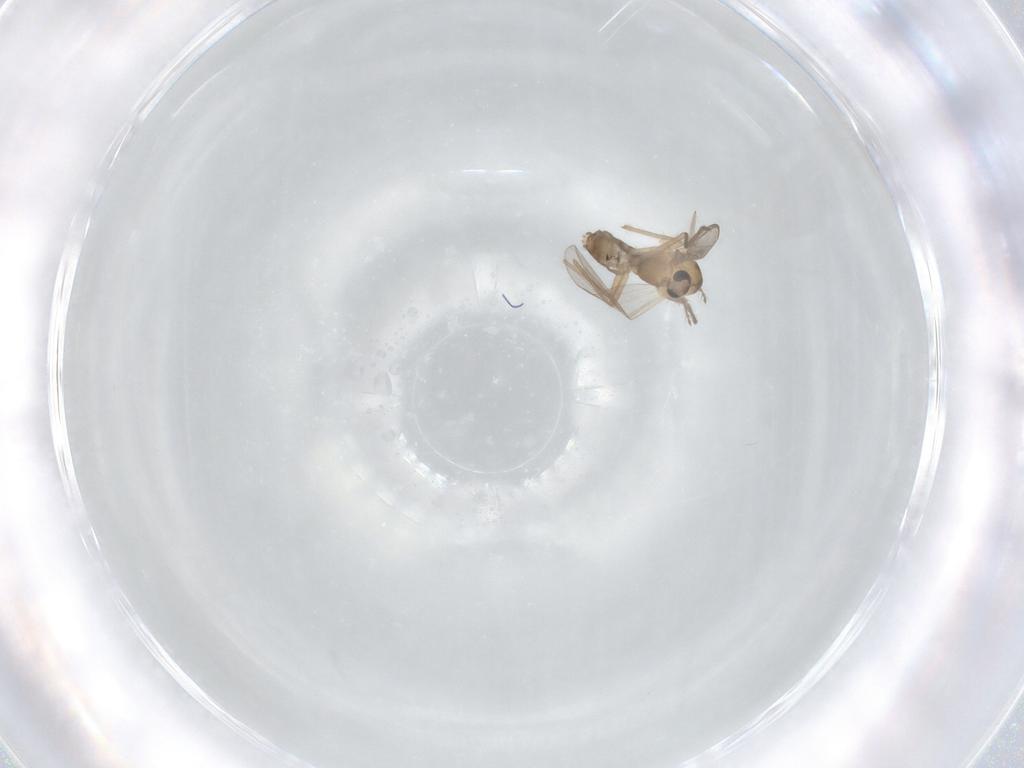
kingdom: Animalia
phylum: Arthropoda
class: Insecta
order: Diptera
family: Chironomidae
